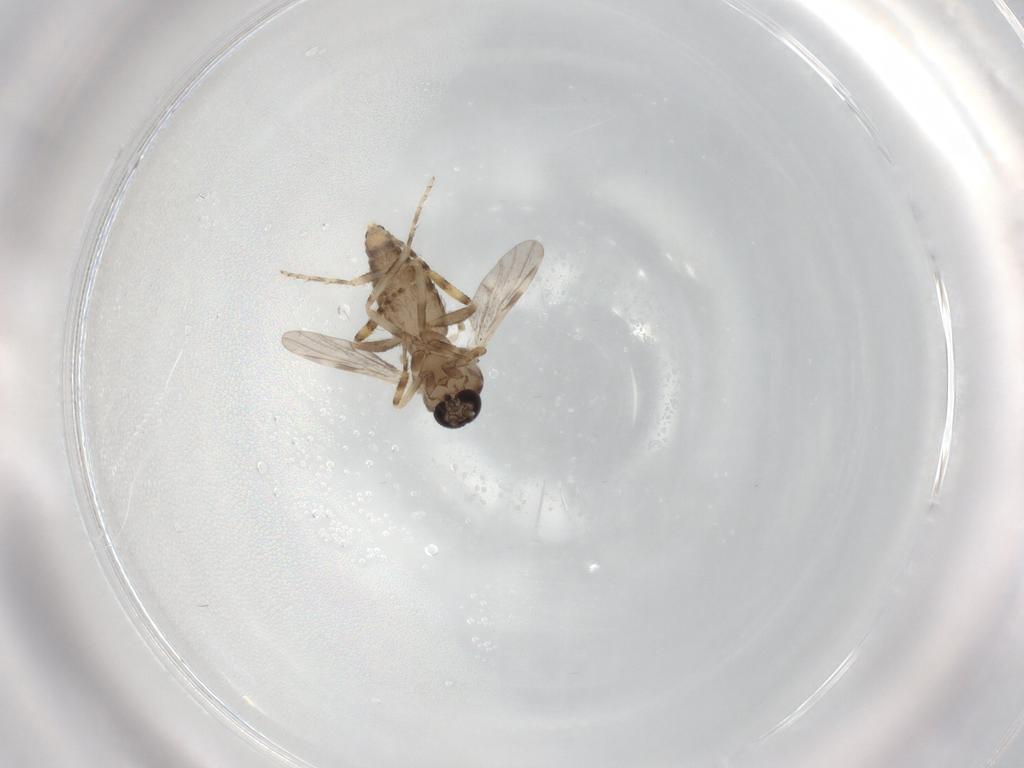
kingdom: Animalia
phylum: Arthropoda
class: Insecta
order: Diptera
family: Ceratopogonidae
